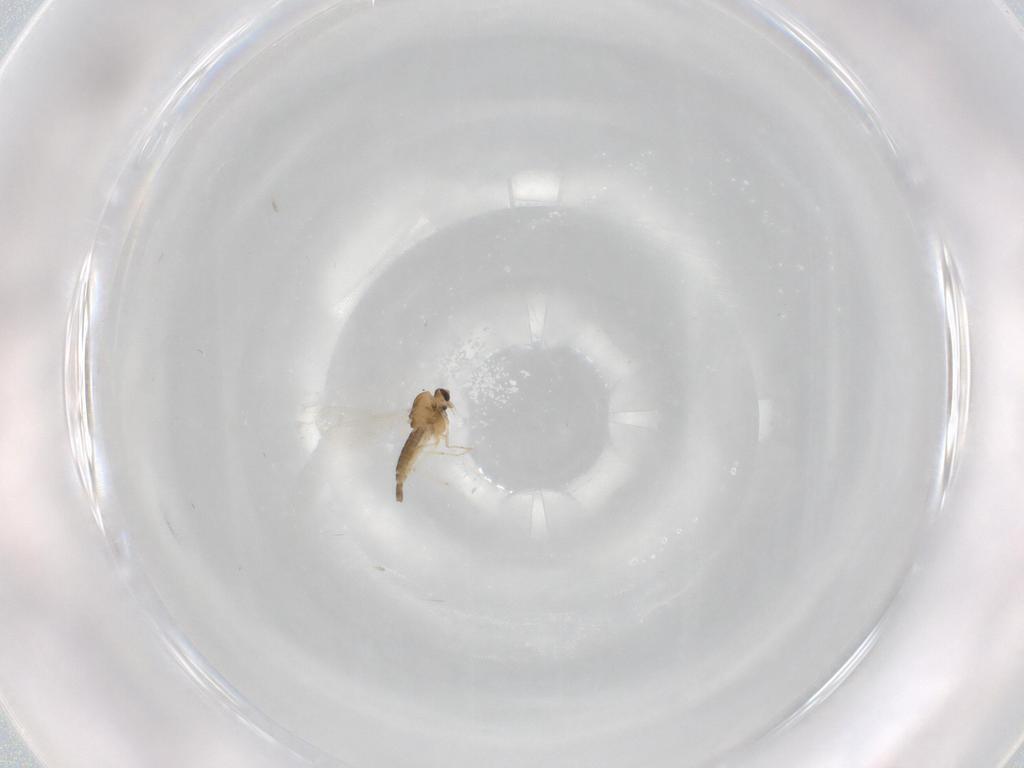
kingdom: Animalia
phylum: Arthropoda
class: Insecta
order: Diptera
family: Chironomidae
